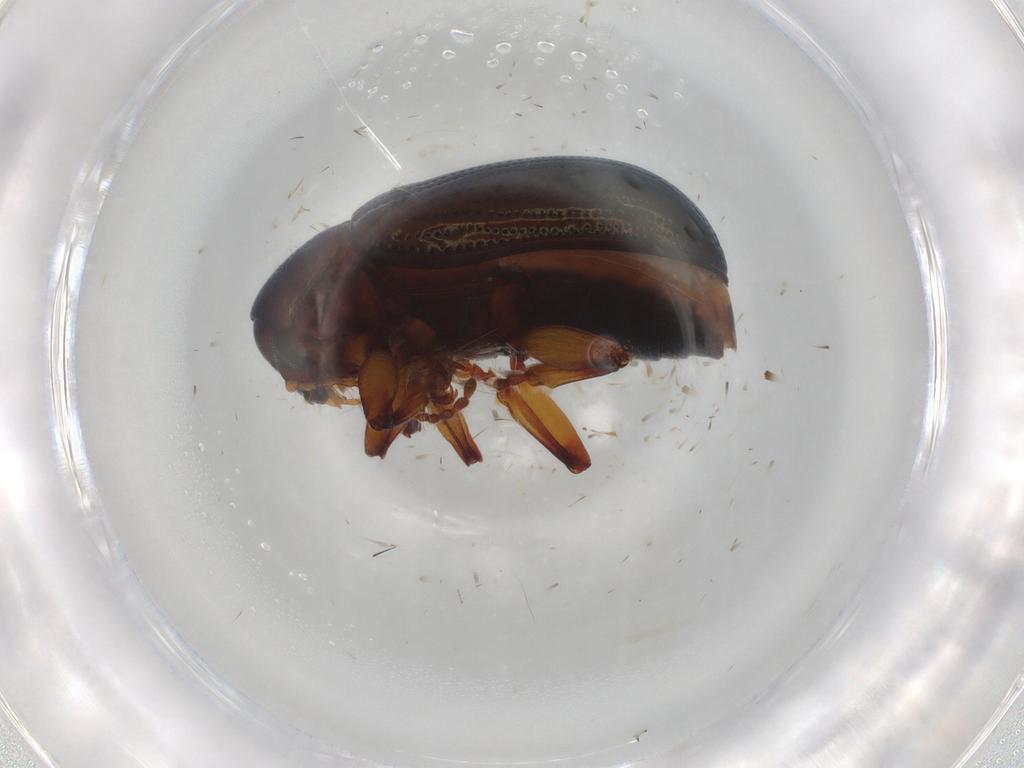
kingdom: Animalia
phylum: Arthropoda
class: Insecta
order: Coleoptera
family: Chrysomelidae
